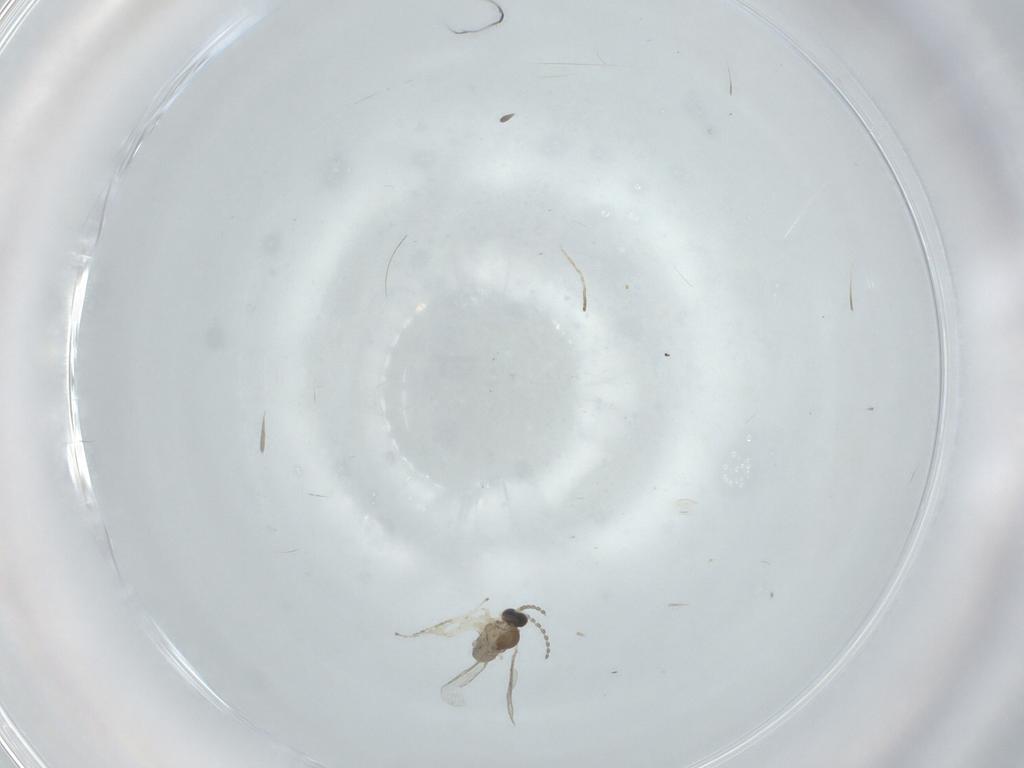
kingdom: Animalia
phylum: Arthropoda
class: Insecta
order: Diptera
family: Cecidomyiidae
